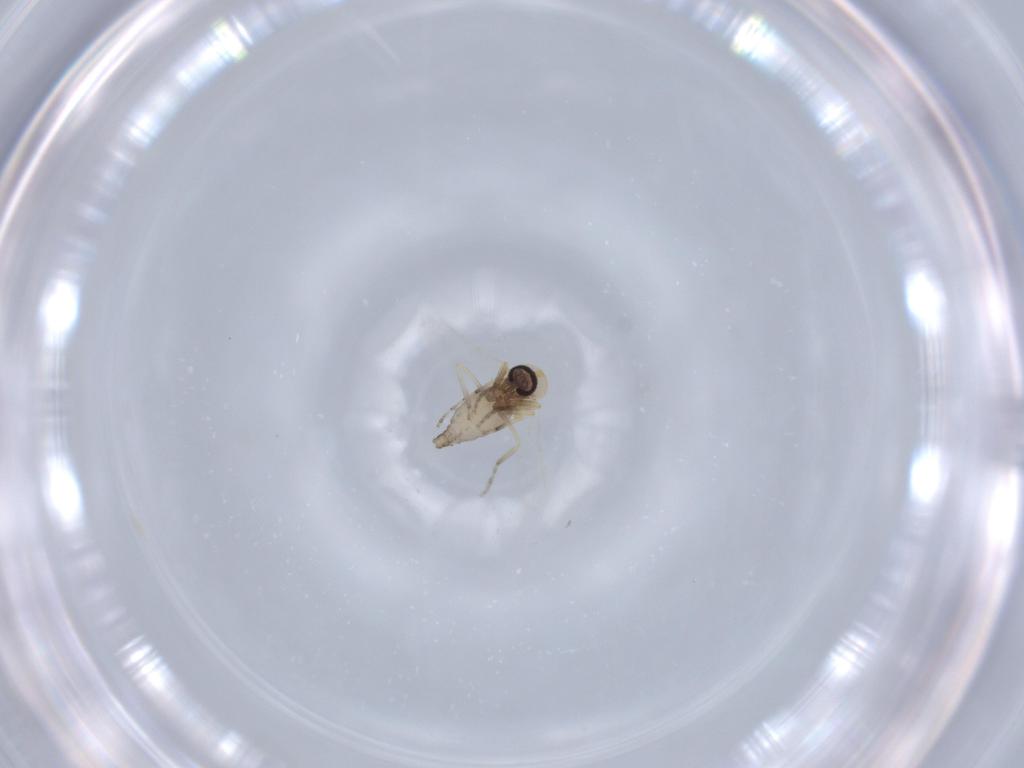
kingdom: Animalia
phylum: Arthropoda
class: Insecta
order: Diptera
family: Ceratopogonidae
